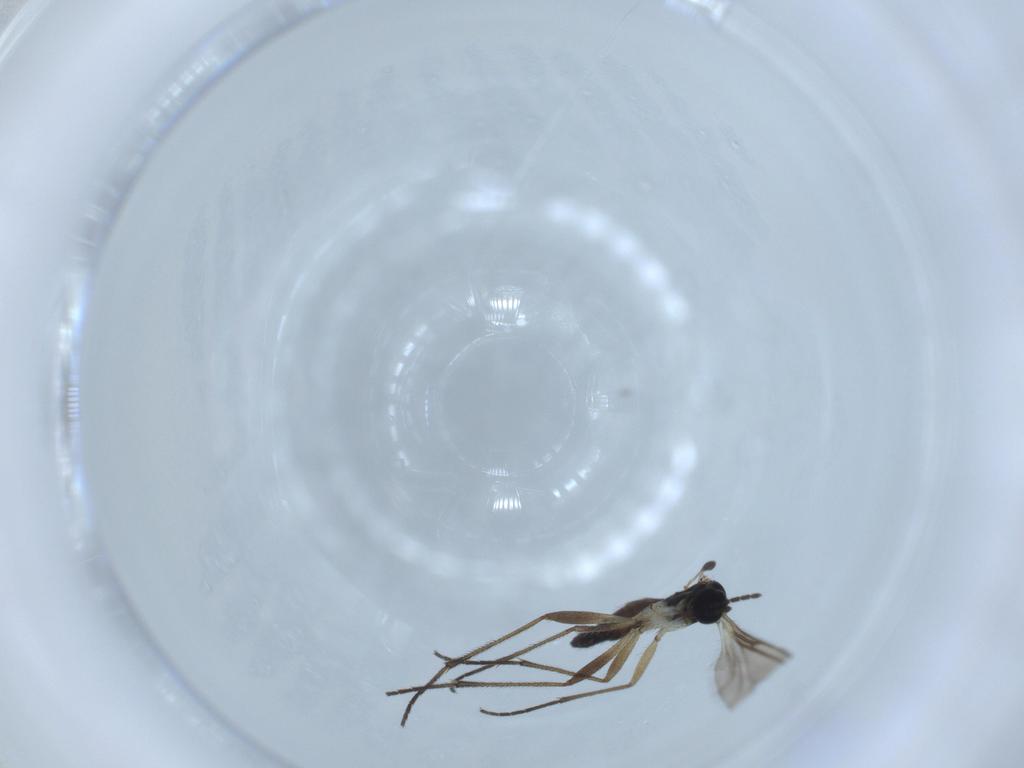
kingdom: Animalia
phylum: Arthropoda
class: Insecta
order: Diptera
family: Sciaridae
